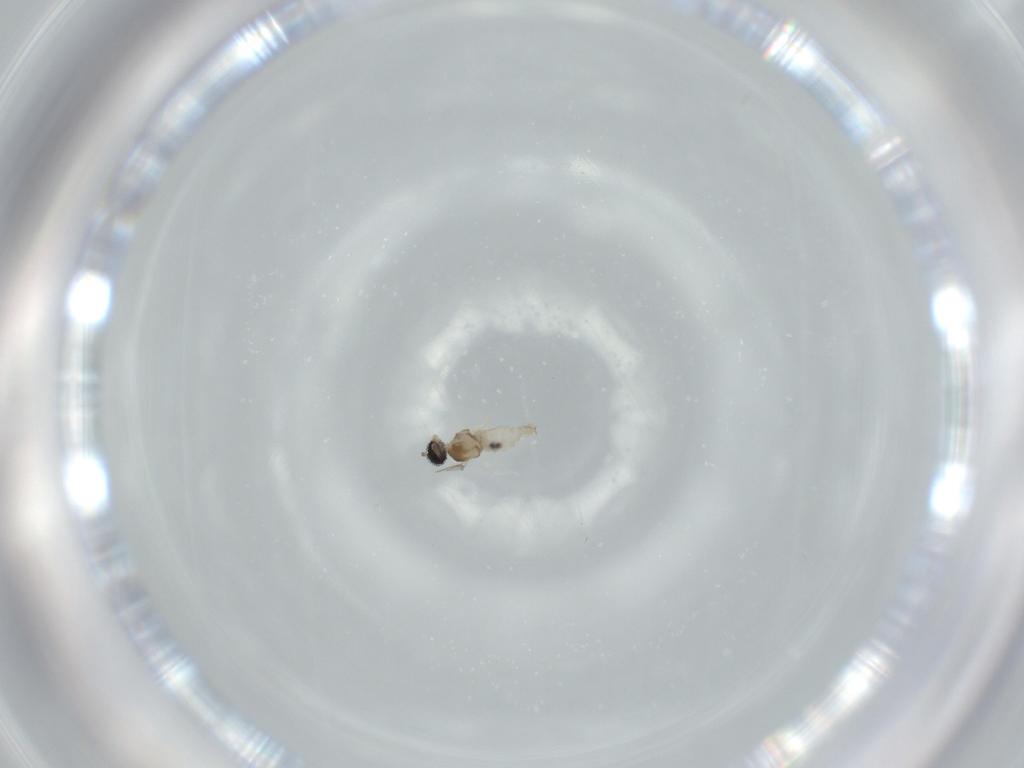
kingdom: Animalia
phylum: Arthropoda
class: Insecta
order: Diptera
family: Cecidomyiidae
